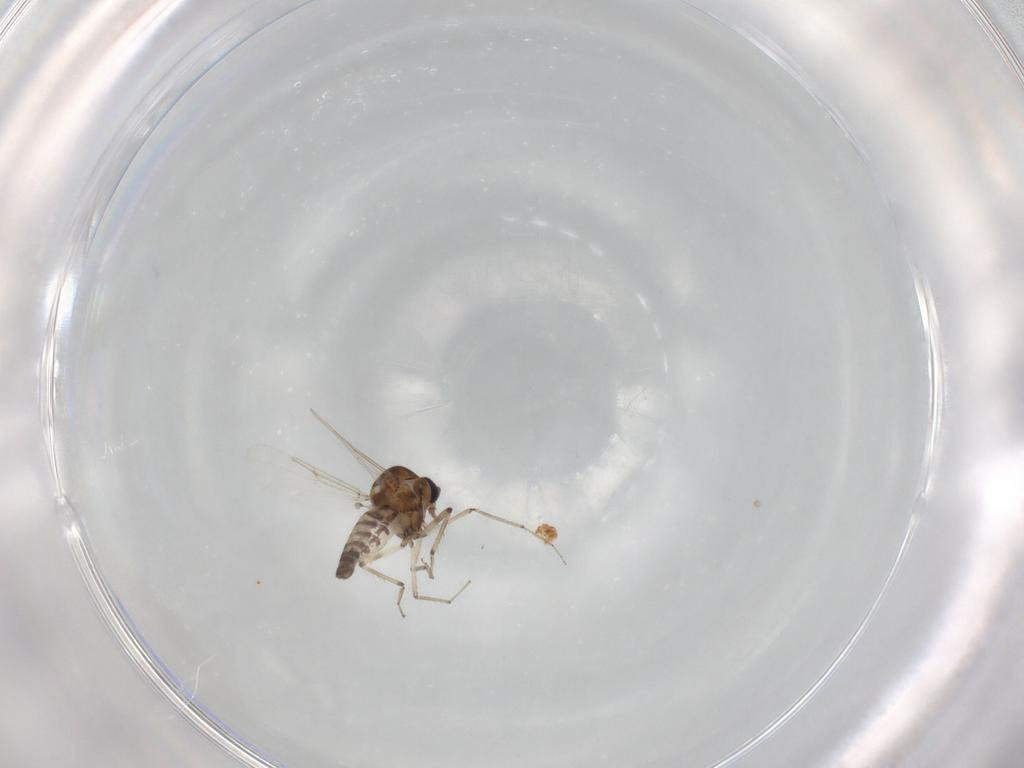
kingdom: Animalia
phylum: Arthropoda
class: Insecta
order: Diptera
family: Ceratopogonidae
